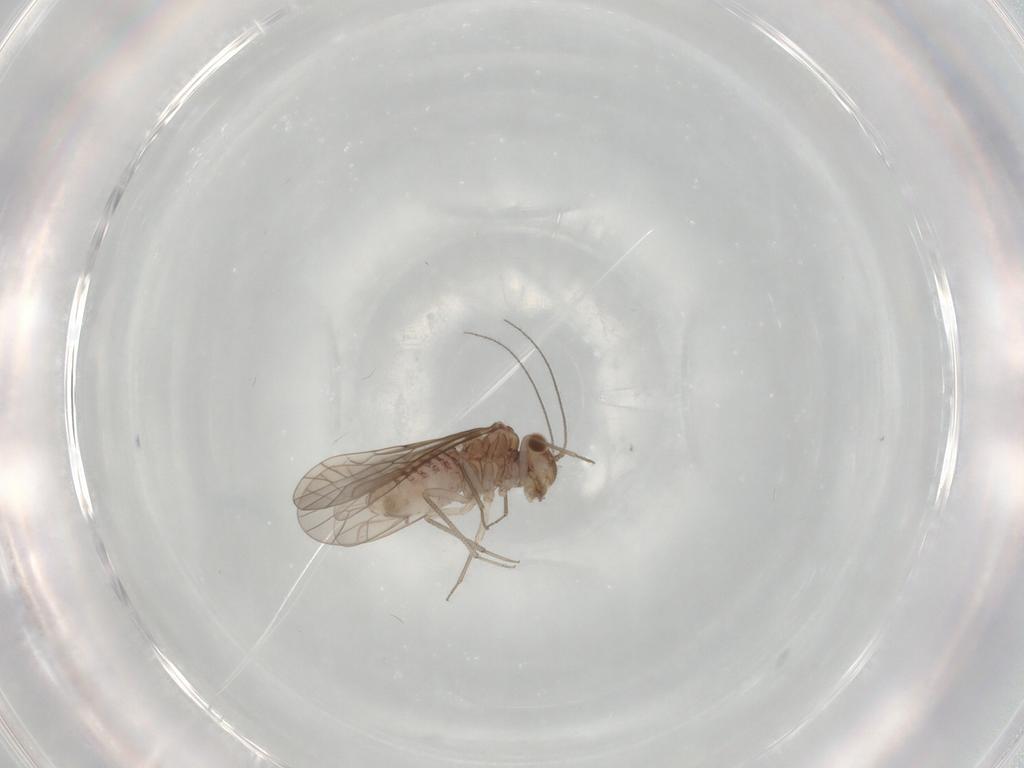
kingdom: Animalia
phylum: Arthropoda
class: Insecta
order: Psocodea
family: Lachesillidae
